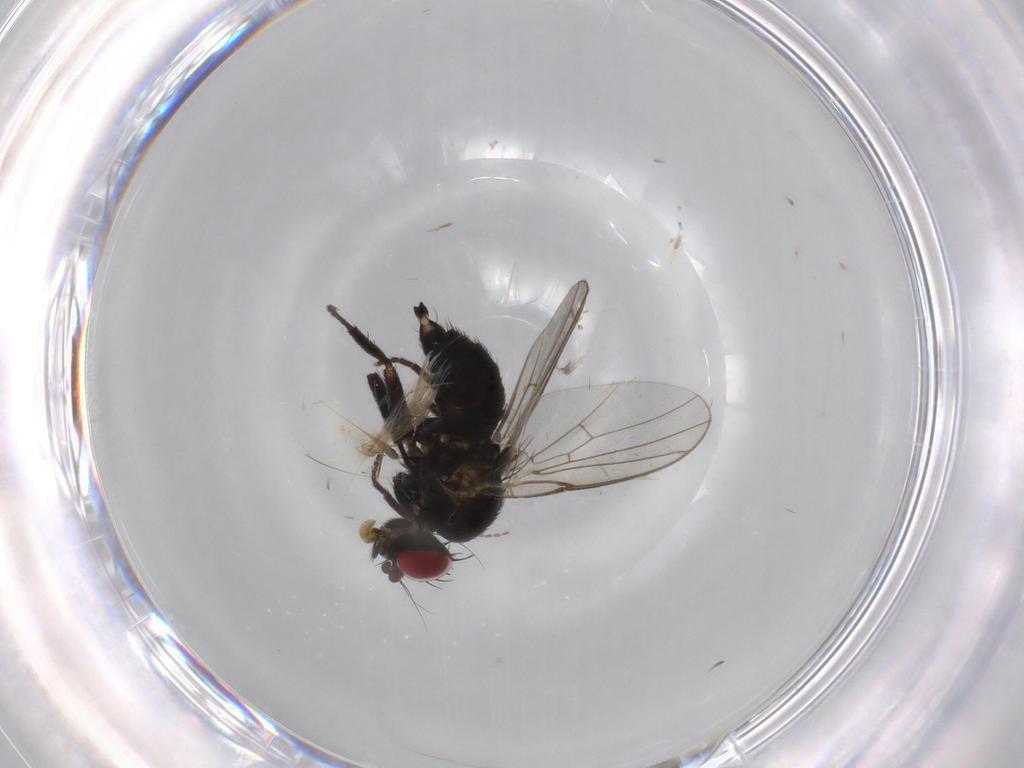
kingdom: Animalia
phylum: Arthropoda
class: Insecta
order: Diptera
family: Agromyzidae
